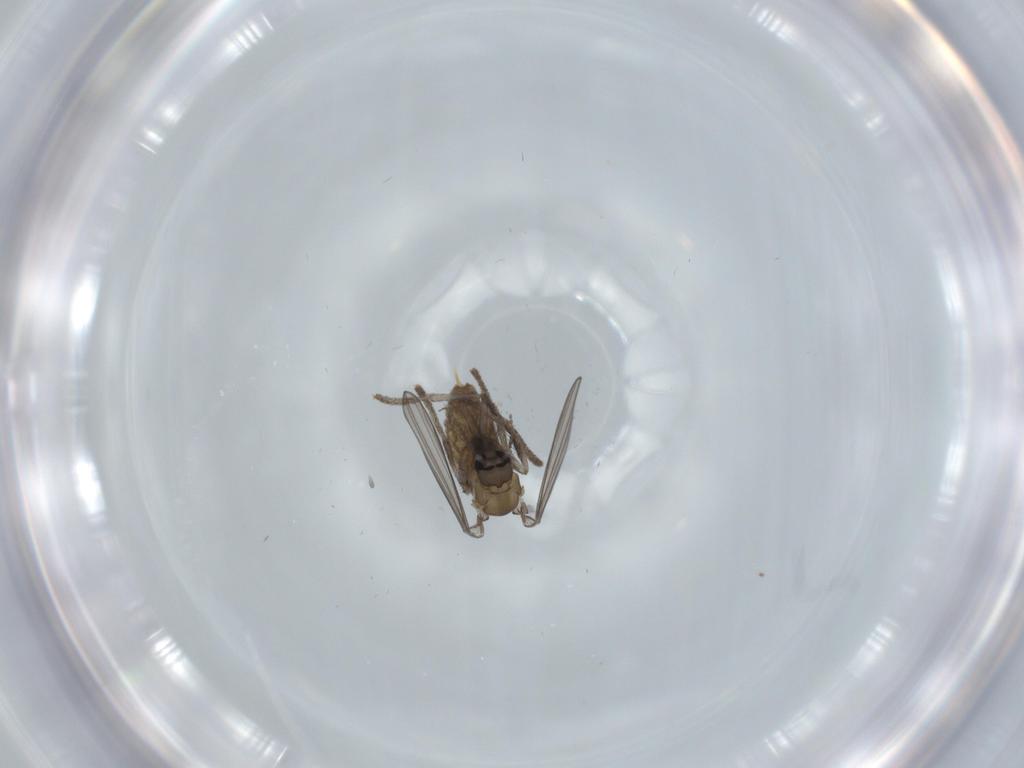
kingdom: Animalia
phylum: Arthropoda
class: Insecta
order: Diptera
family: Psychodidae
